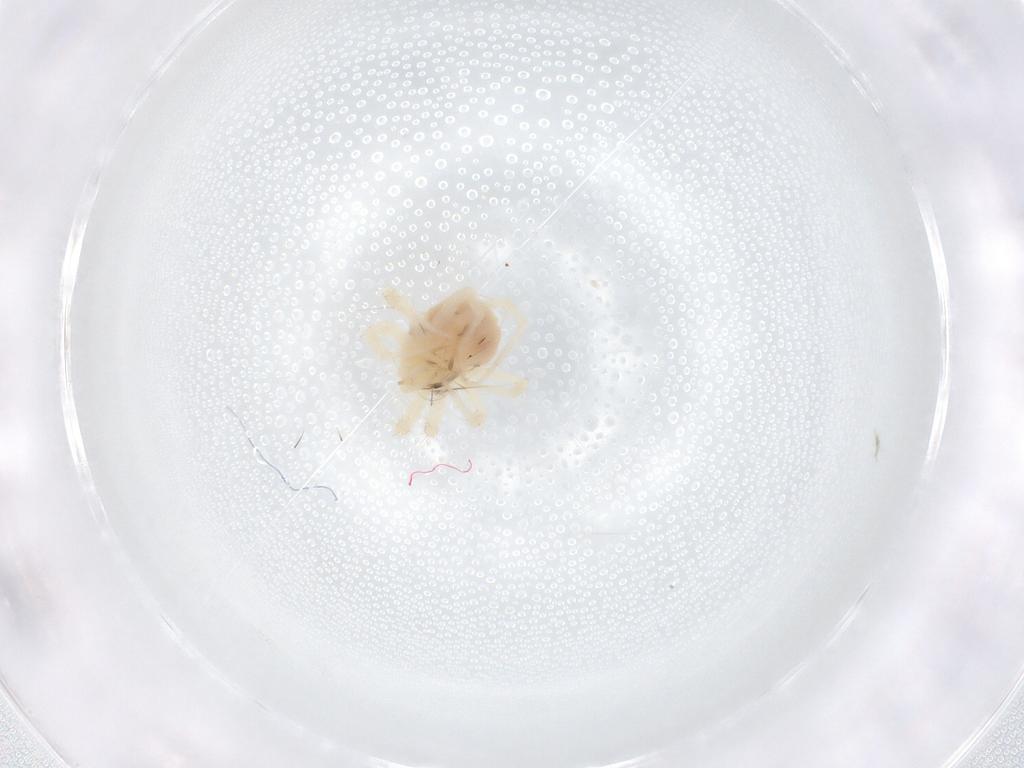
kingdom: Animalia
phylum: Arthropoda
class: Arachnida
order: Trombidiformes
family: Anystidae
